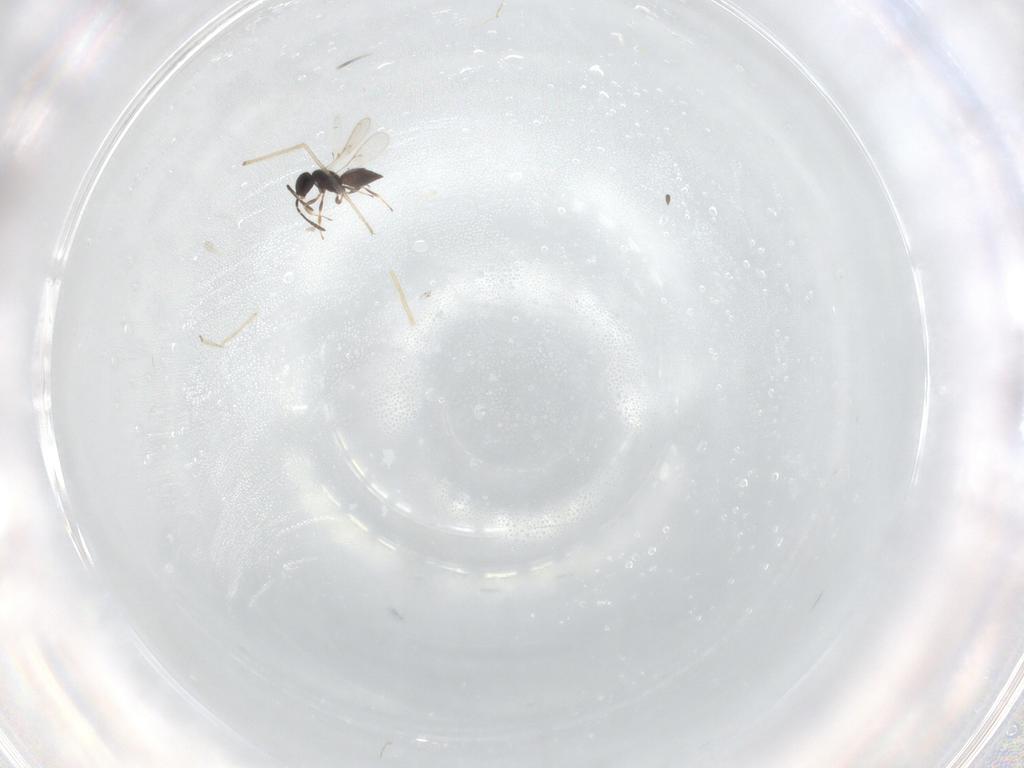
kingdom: Animalia
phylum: Arthropoda
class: Insecta
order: Hymenoptera
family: Scelionidae
